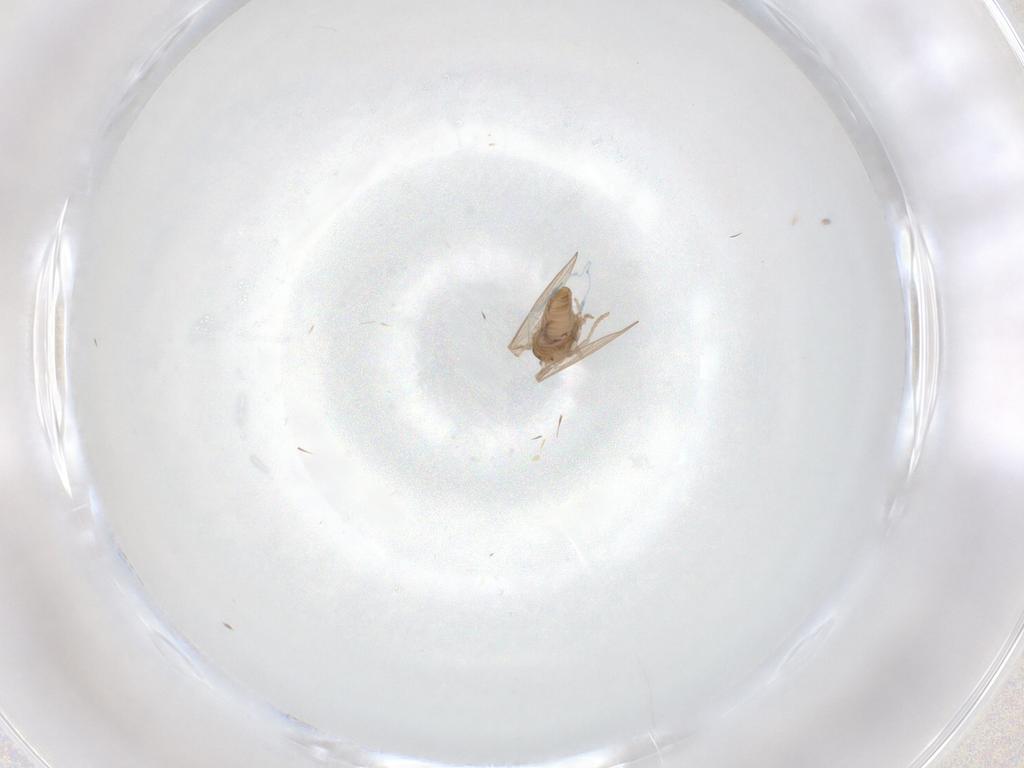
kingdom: Animalia
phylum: Arthropoda
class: Insecta
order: Diptera
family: Psychodidae
